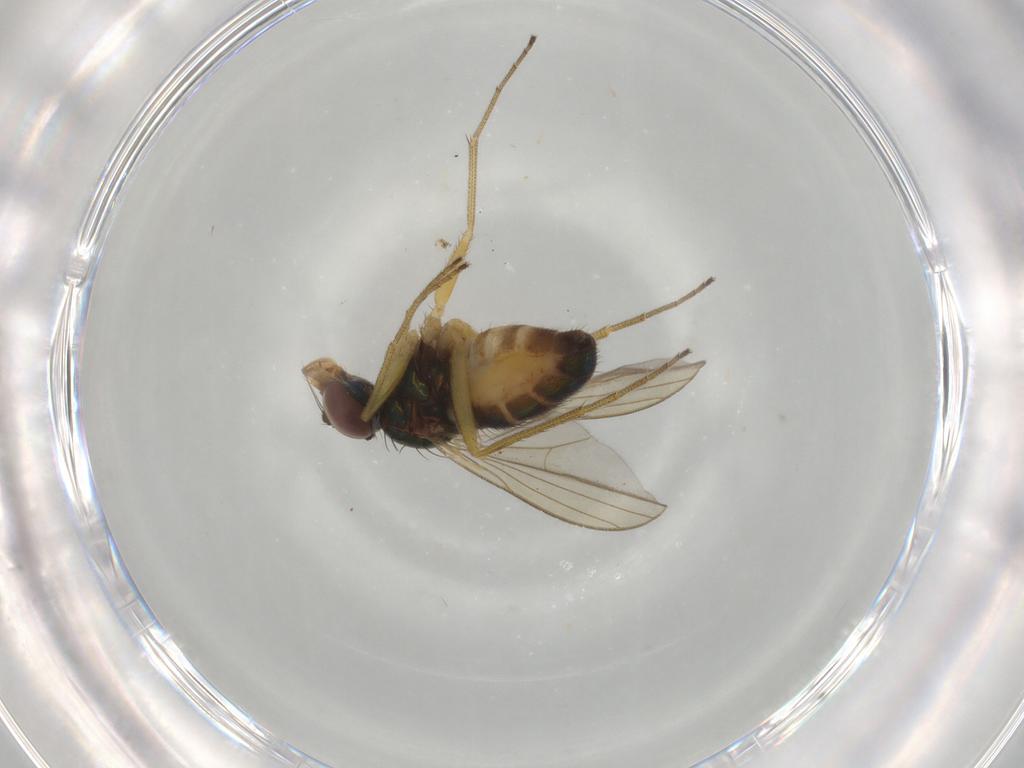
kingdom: Animalia
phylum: Arthropoda
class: Insecta
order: Diptera
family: Dolichopodidae
